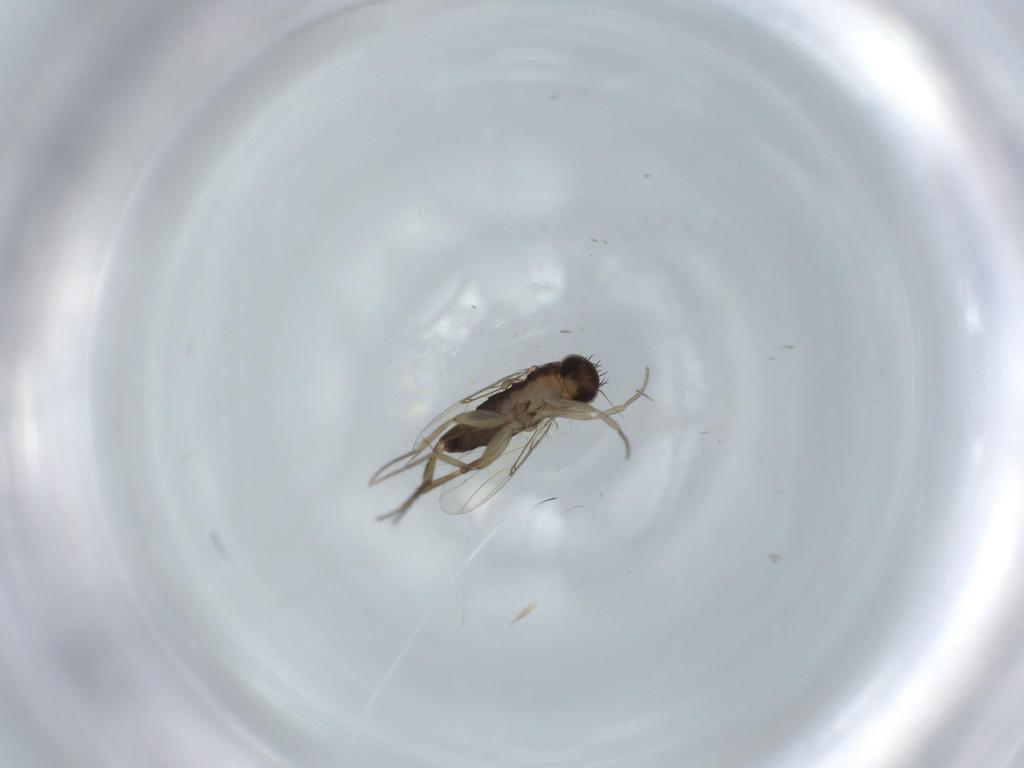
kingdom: Animalia
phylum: Arthropoda
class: Insecta
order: Diptera
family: Phoridae
